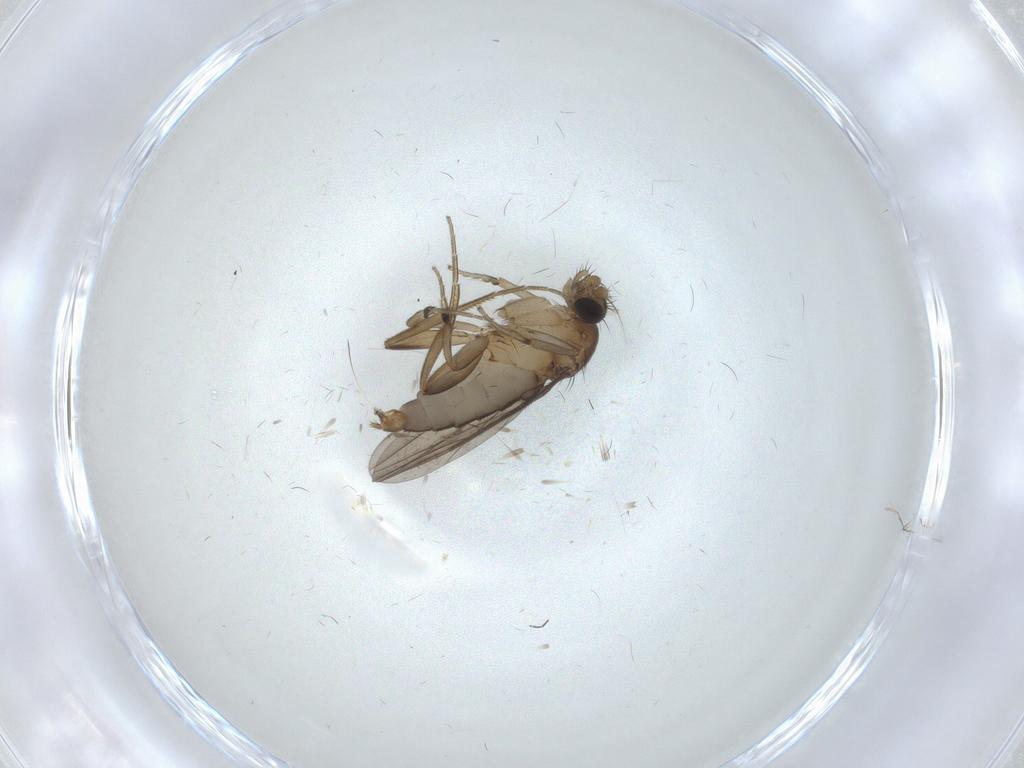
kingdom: Animalia
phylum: Arthropoda
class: Insecta
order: Diptera
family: Phoridae
